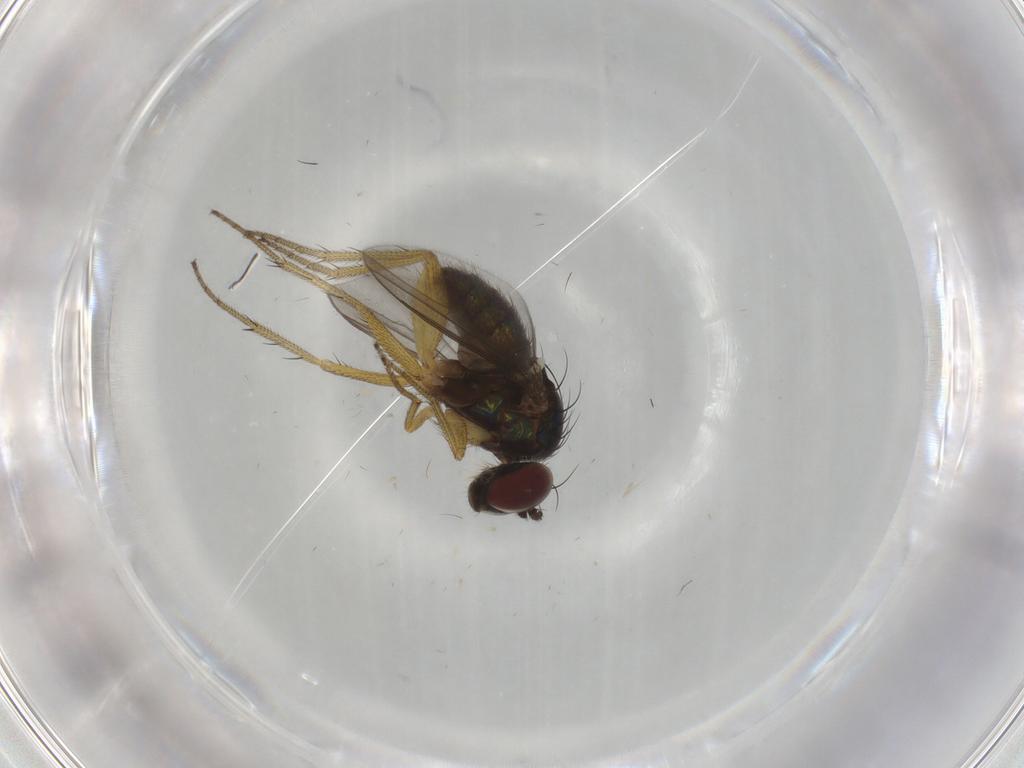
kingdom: Animalia
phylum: Arthropoda
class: Insecta
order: Diptera
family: Dolichopodidae
